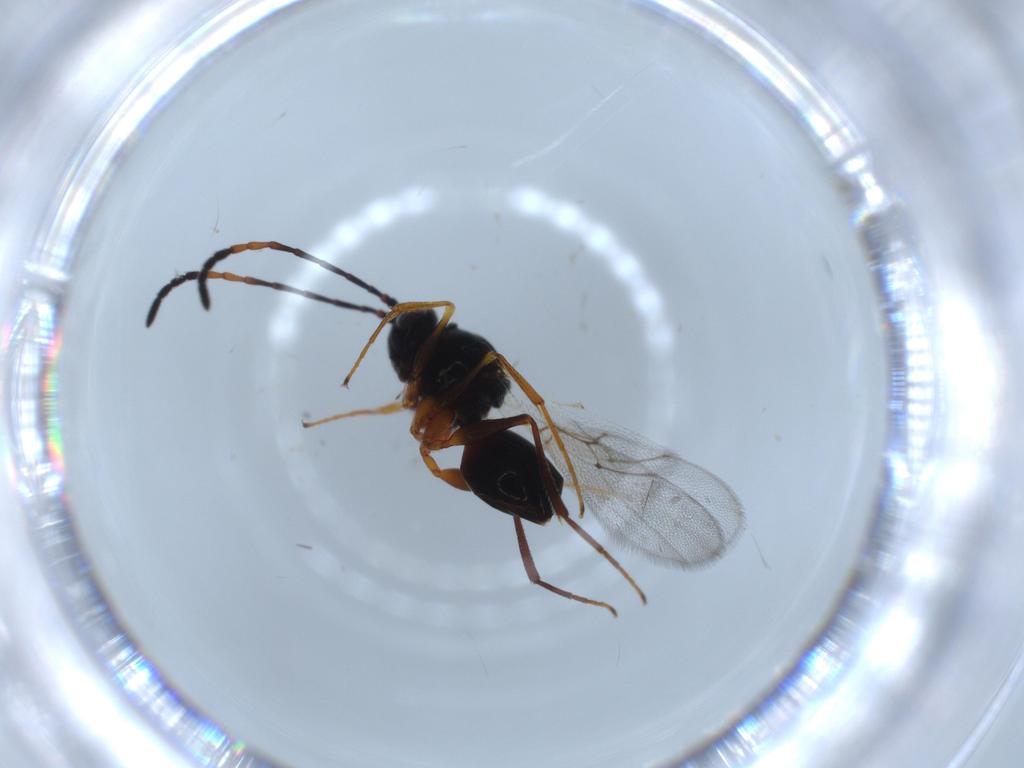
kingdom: Animalia
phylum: Arthropoda
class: Insecta
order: Hymenoptera
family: Figitidae
